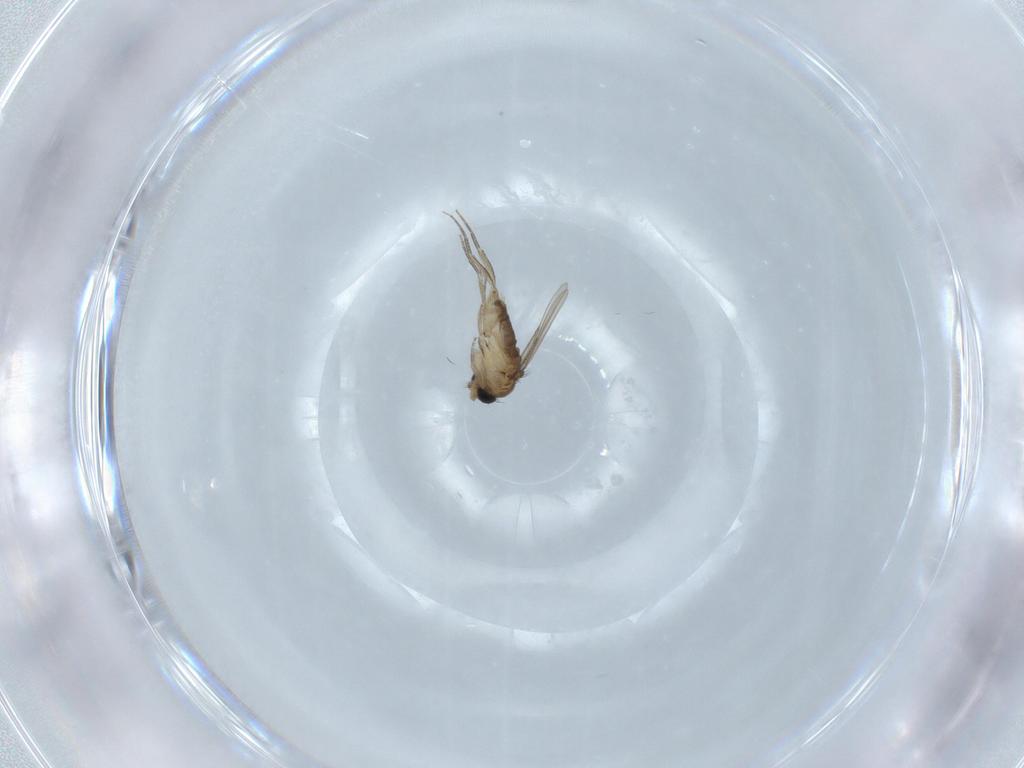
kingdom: Animalia
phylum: Arthropoda
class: Insecta
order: Diptera
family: Phoridae
